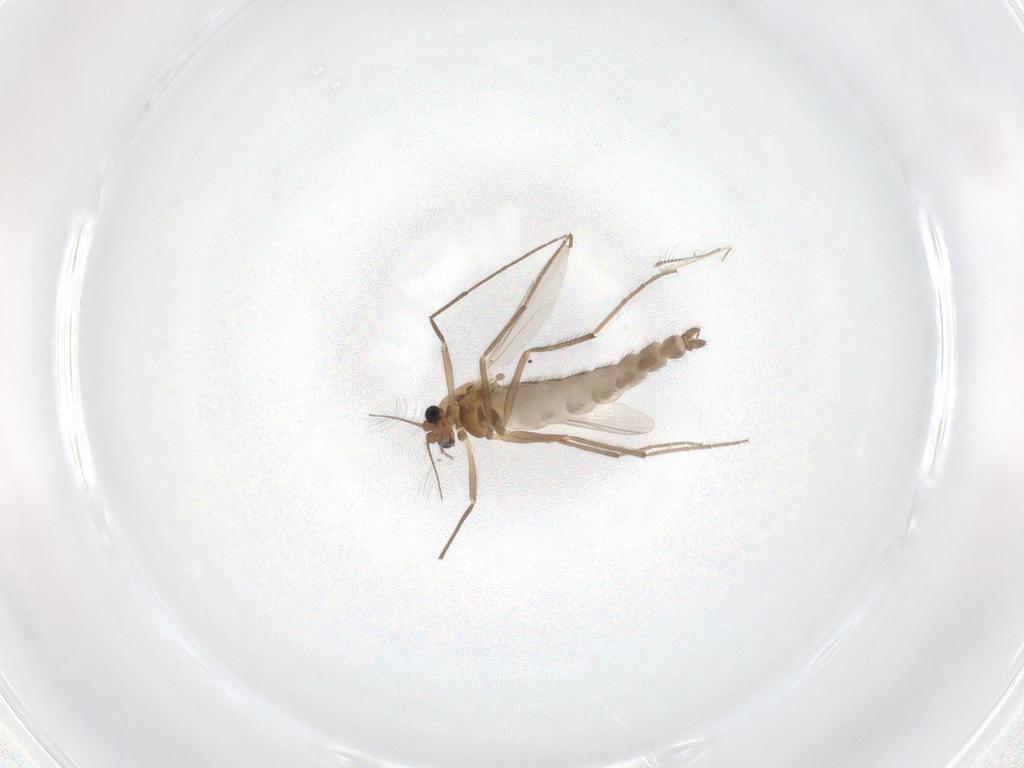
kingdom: Animalia
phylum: Arthropoda
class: Insecta
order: Diptera
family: Chironomidae
